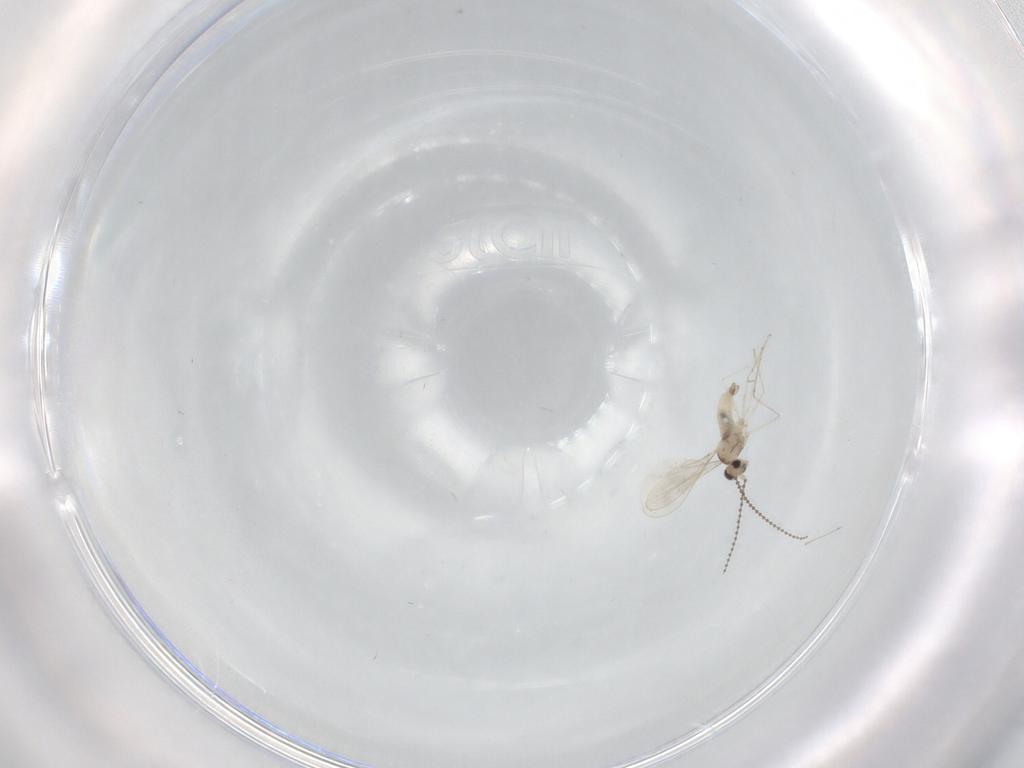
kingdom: Animalia
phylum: Arthropoda
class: Insecta
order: Diptera
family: Cecidomyiidae
